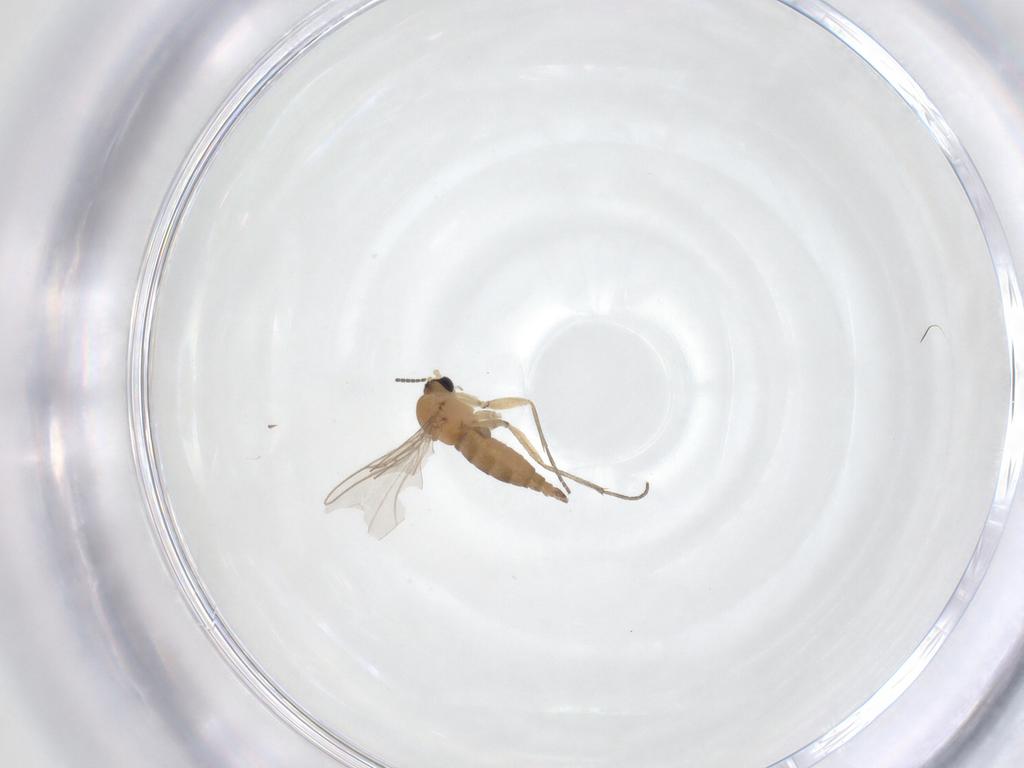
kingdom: Animalia
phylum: Arthropoda
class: Insecta
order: Diptera
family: Sciaridae
